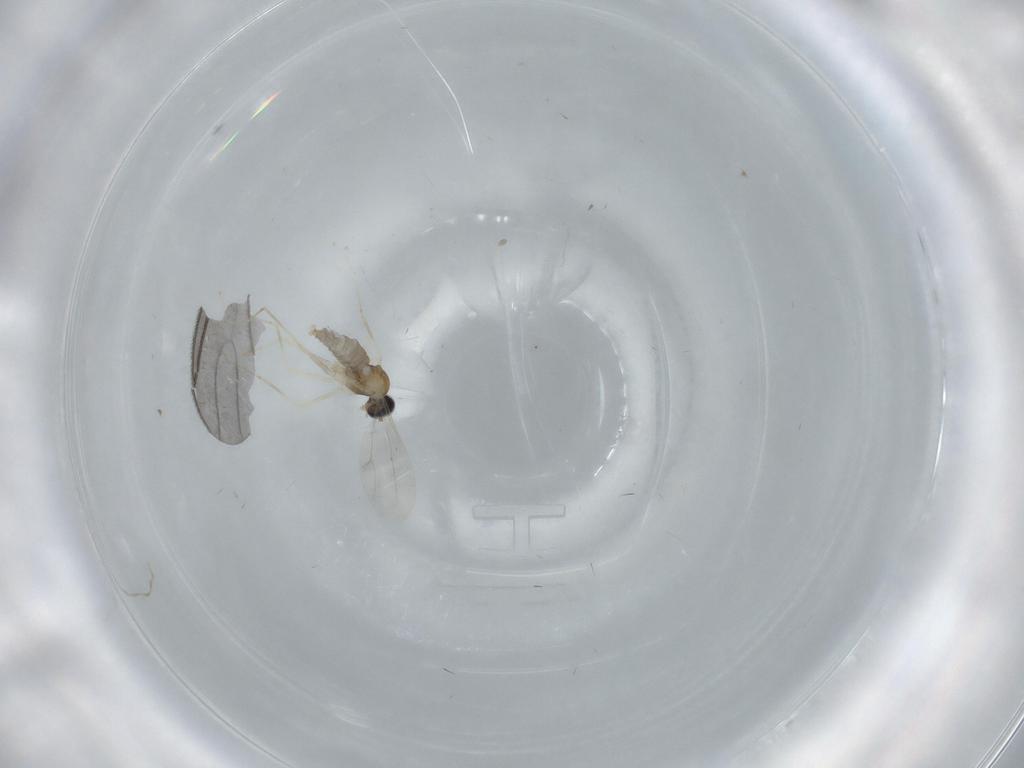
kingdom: Animalia
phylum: Arthropoda
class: Insecta
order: Diptera
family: Sciaridae
